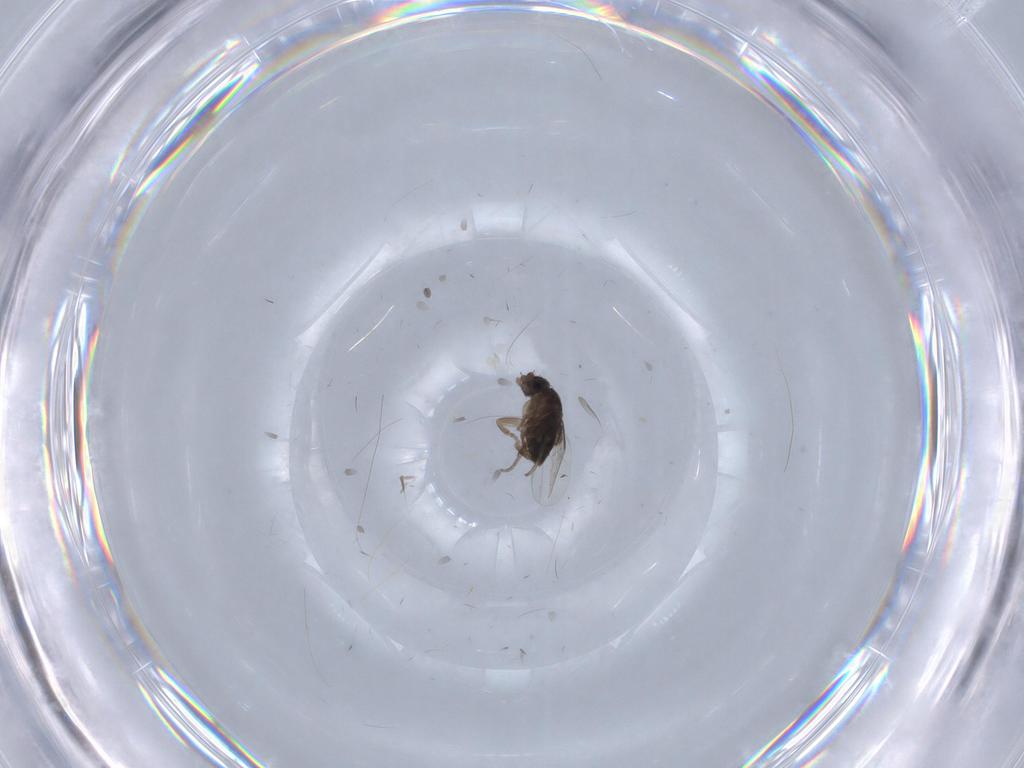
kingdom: Animalia
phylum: Arthropoda
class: Insecta
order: Diptera
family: Phoridae
